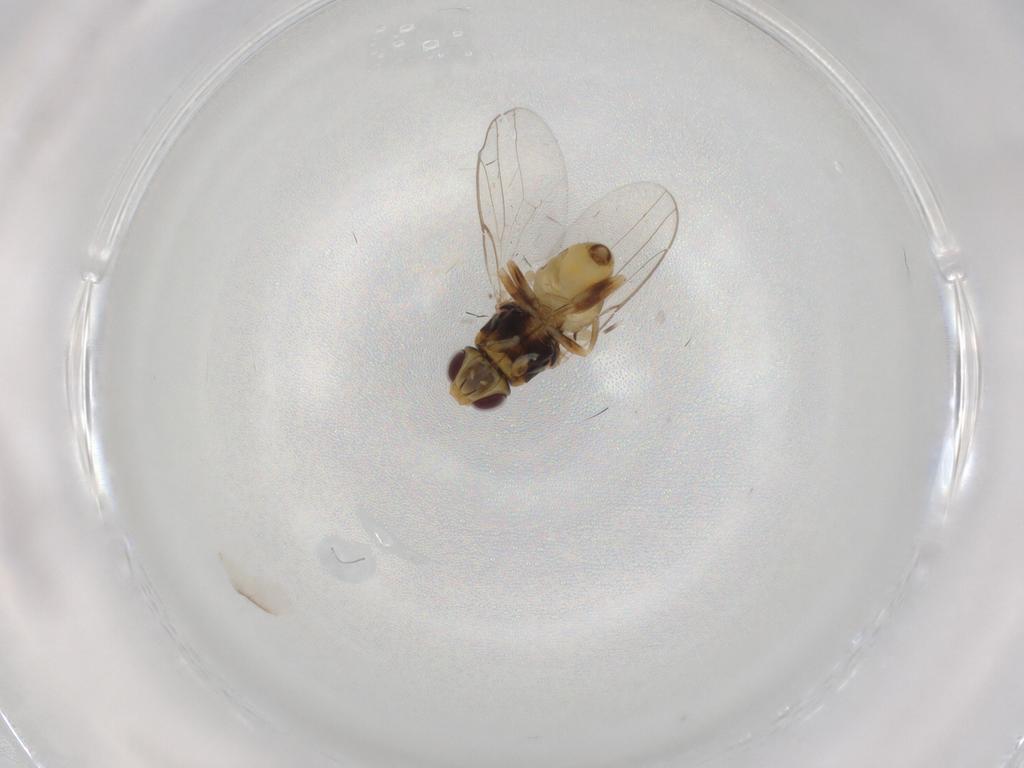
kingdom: Animalia
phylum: Arthropoda
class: Insecta
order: Diptera
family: Chloropidae
